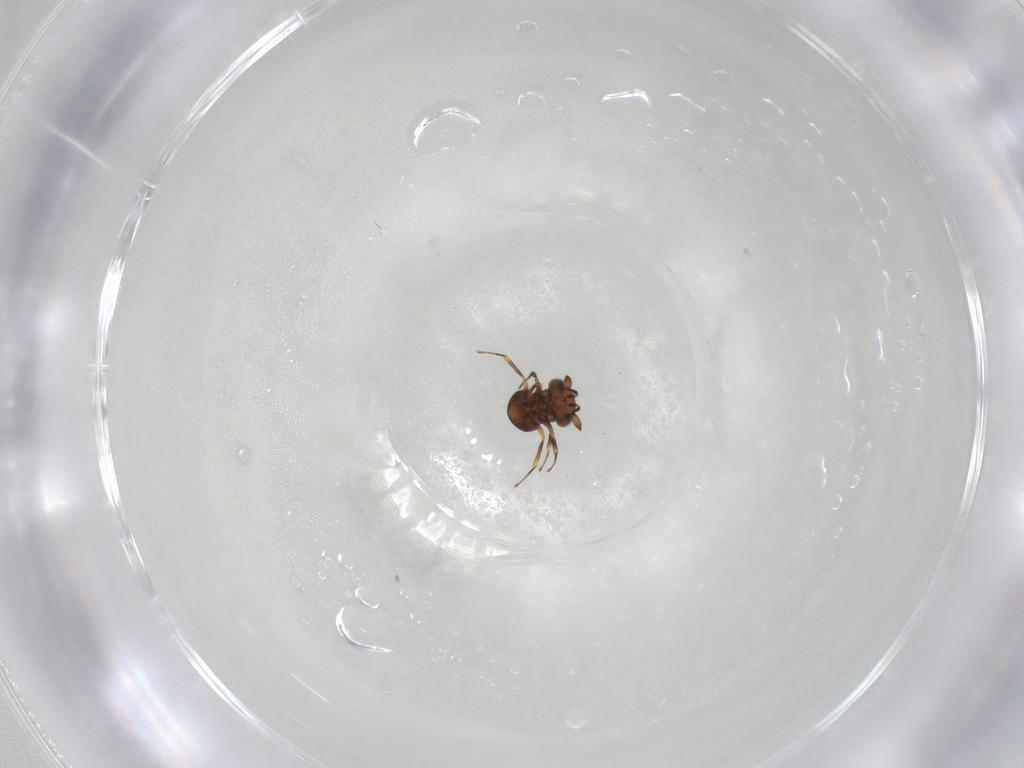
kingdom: Animalia
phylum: Arthropoda
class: Insecta
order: Hymenoptera
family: Scelionidae
